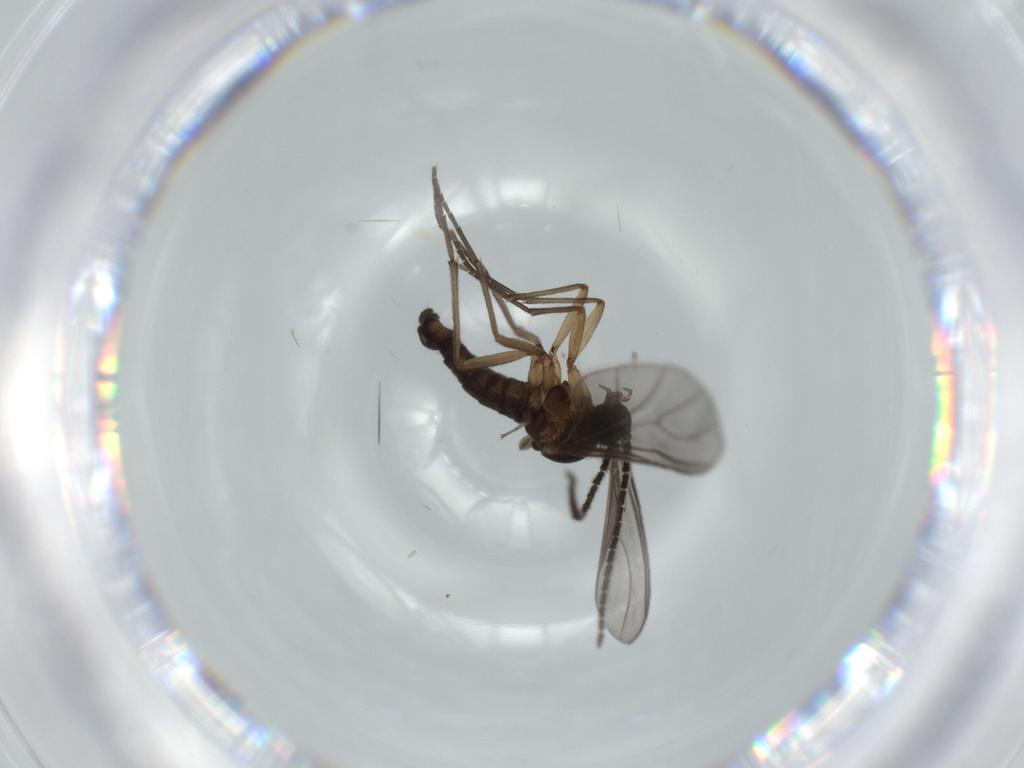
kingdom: Animalia
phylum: Arthropoda
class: Insecta
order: Diptera
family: Sciaridae
